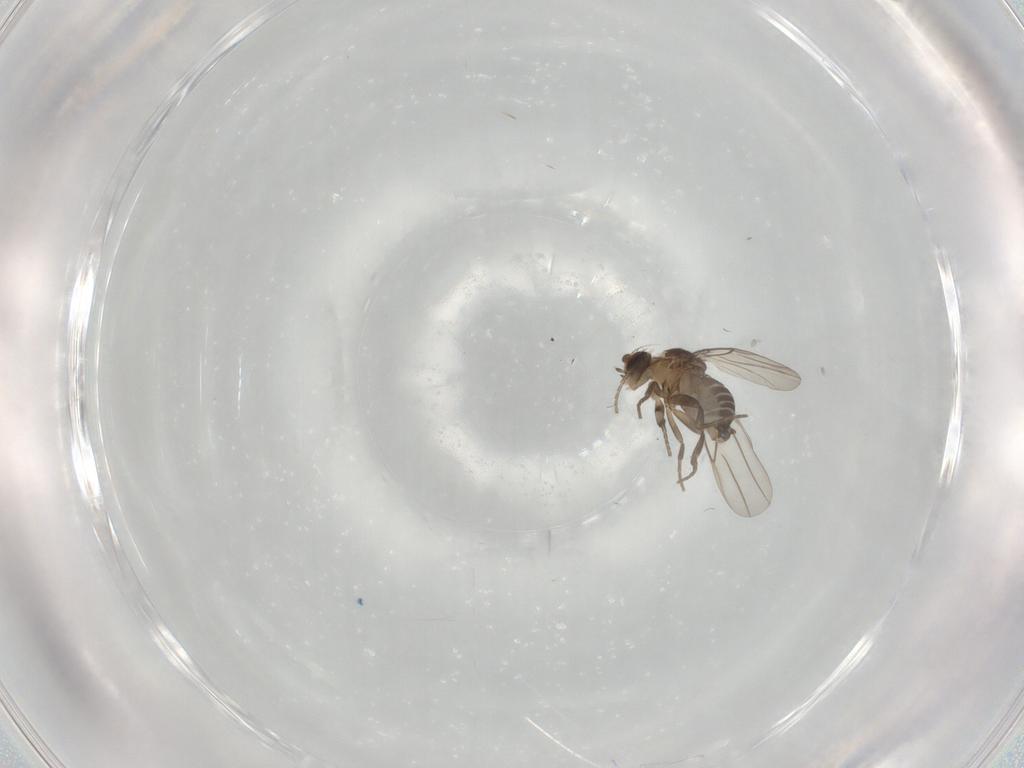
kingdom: Animalia
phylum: Arthropoda
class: Insecta
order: Diptera
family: Phoridae
